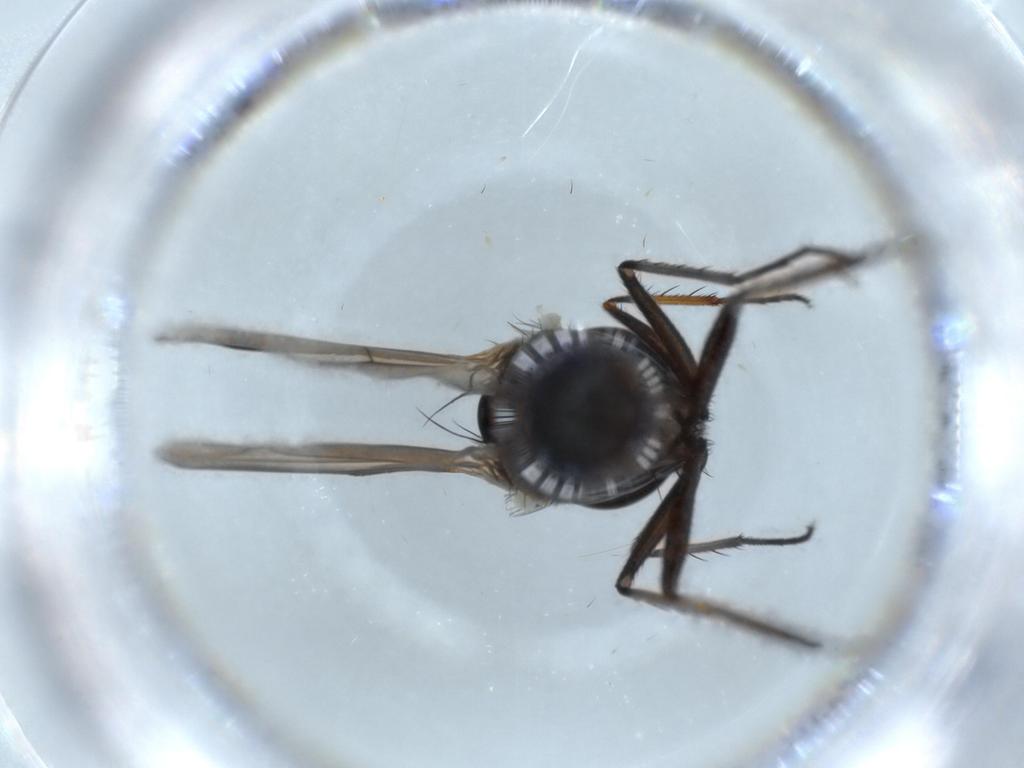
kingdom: Animalia
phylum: Arthropoda
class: Insecta
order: Diptera
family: Dolichopodidae
